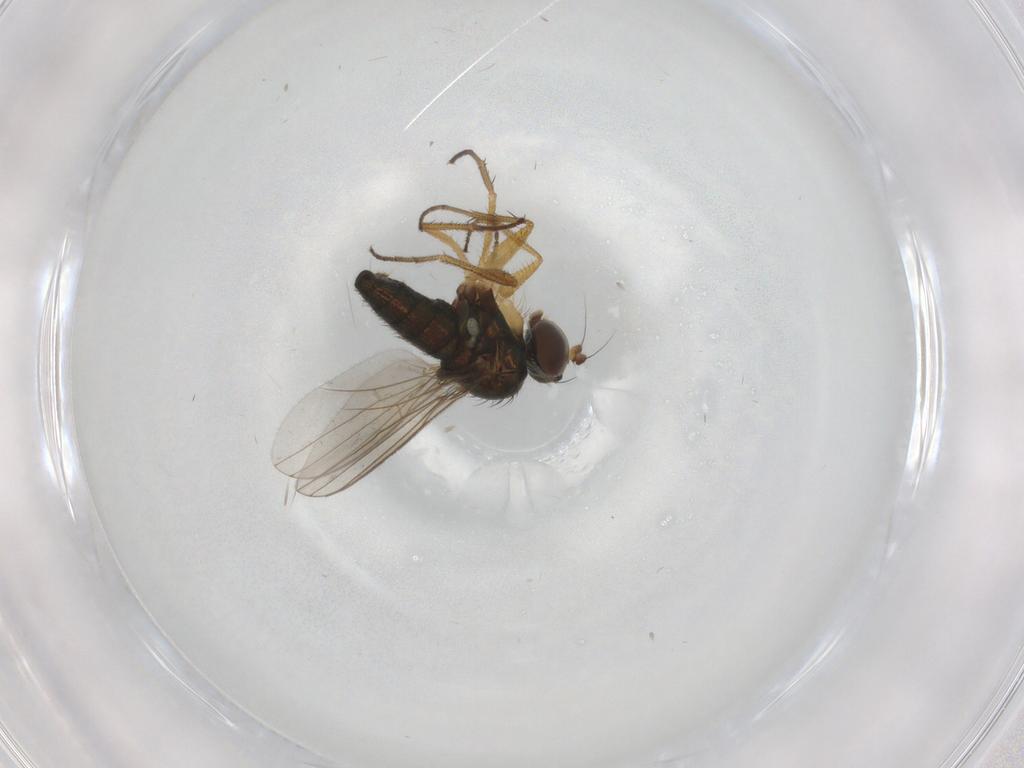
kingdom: Animalia
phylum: Arthropoda
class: Insecta
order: Diptera
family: Dolichopodidae
